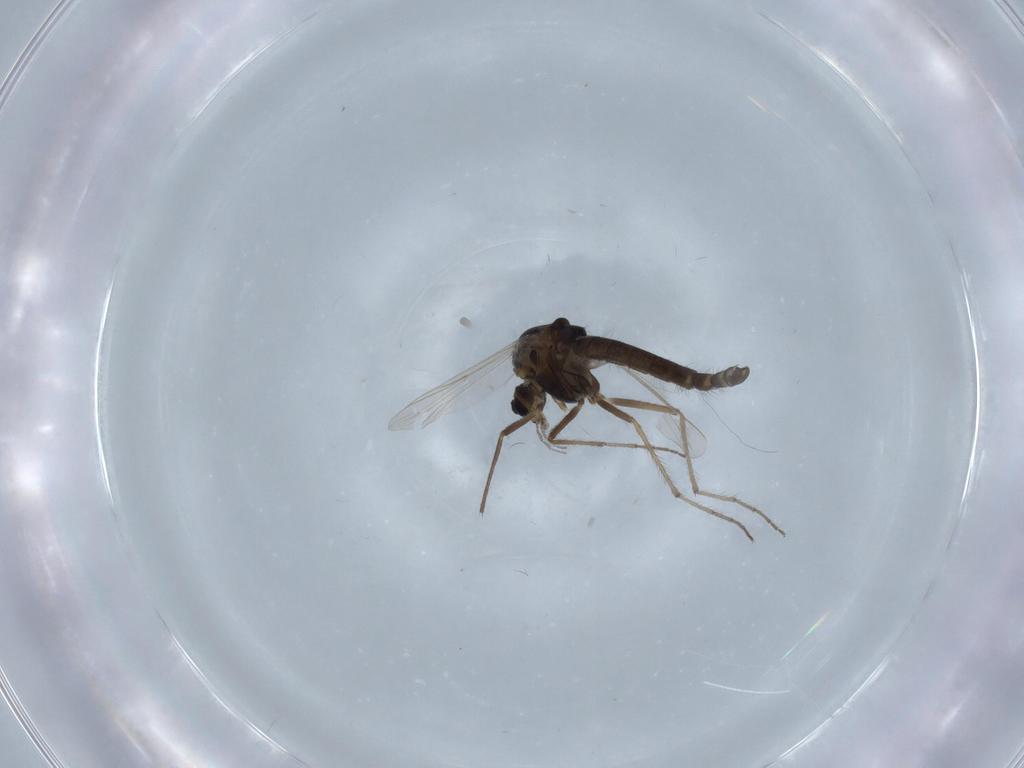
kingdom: Animalia
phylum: Arthropoda
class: Insecta
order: Diptera
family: Chironomidae
